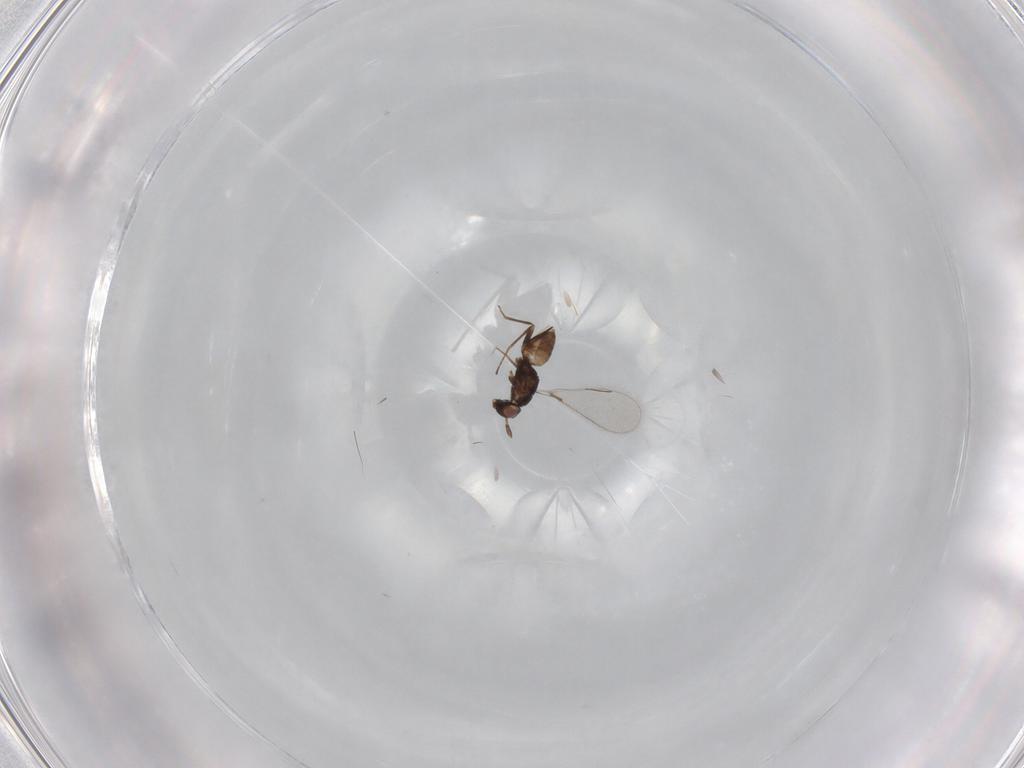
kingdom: Animalia
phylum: Arthropoda
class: Insecta
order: Hymenoptera
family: Mymaridae
